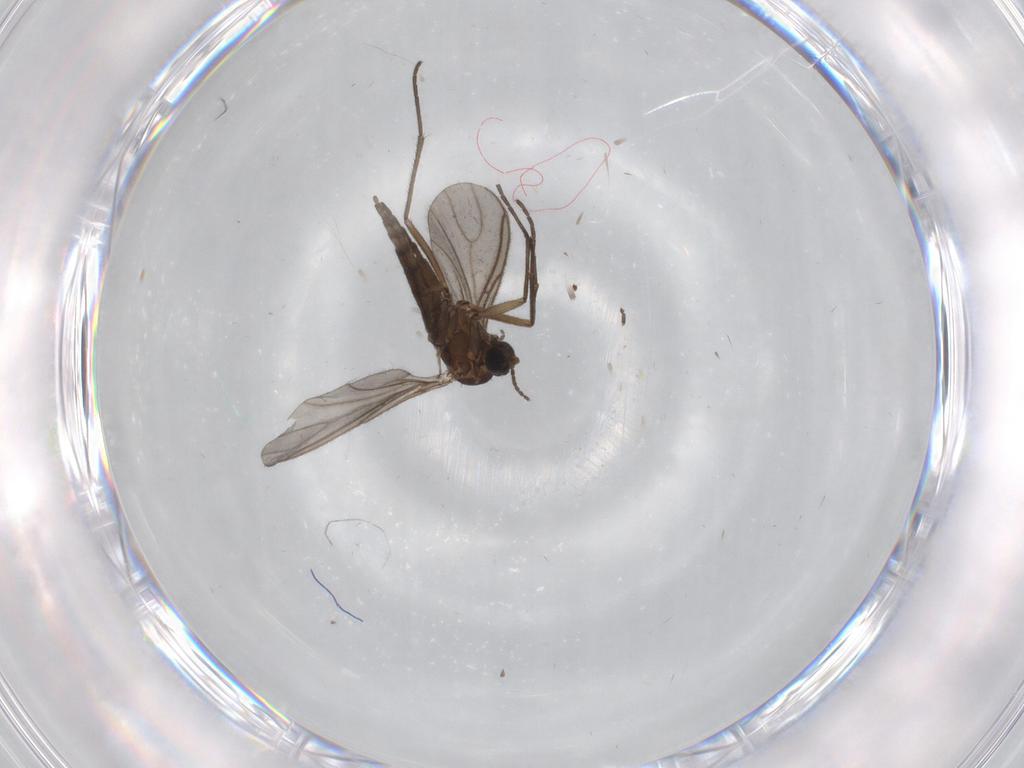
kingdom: Animalia
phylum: Arthropoda
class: Insecta
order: Diptera
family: Sciaridae
